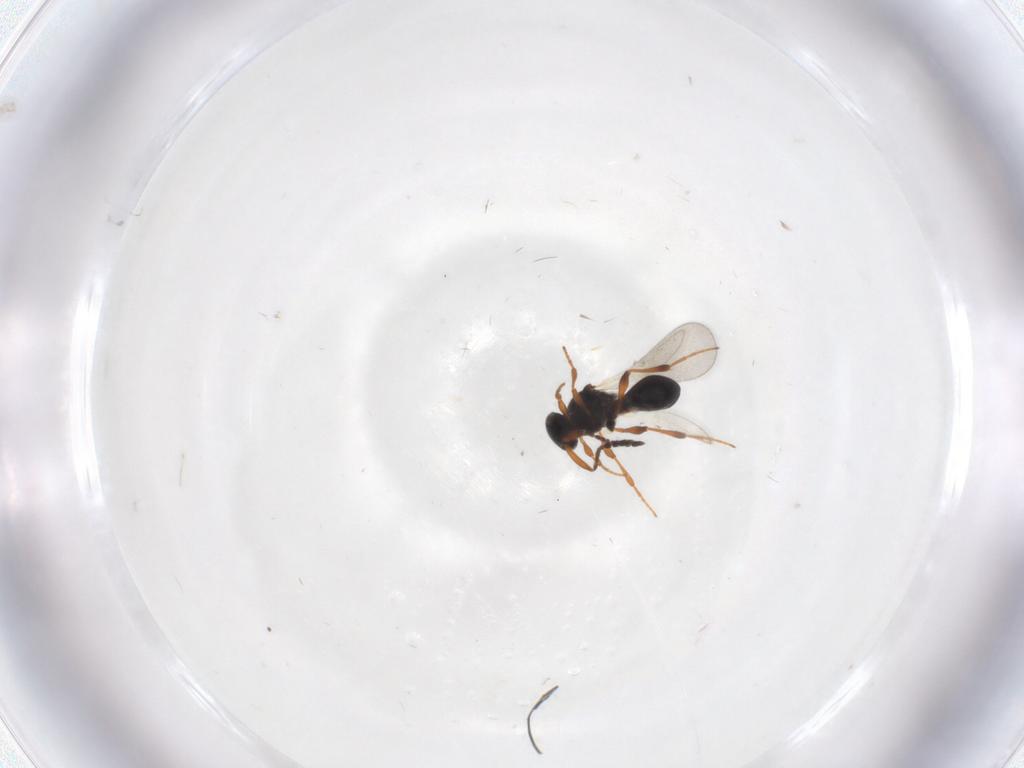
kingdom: Animalia
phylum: Arthropoda
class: Insecta
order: Hymenoptera
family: Platygastridae
